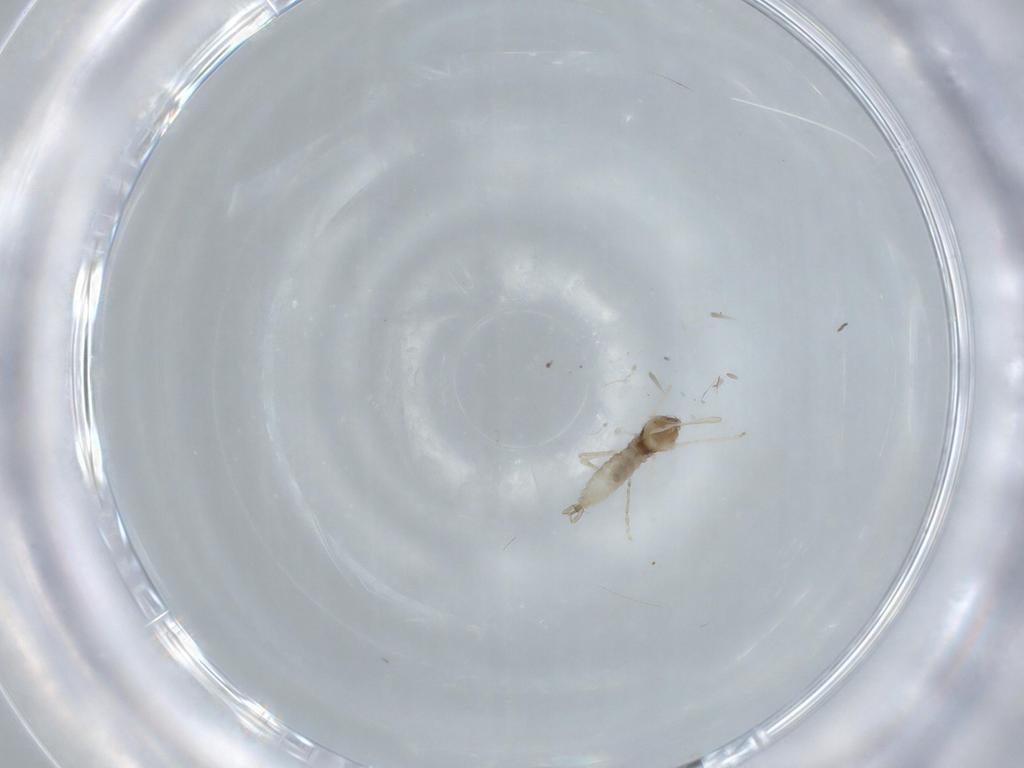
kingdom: Animalia
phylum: Arthropoda
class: Insecta
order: Diptera
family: Cecidomyiidae
